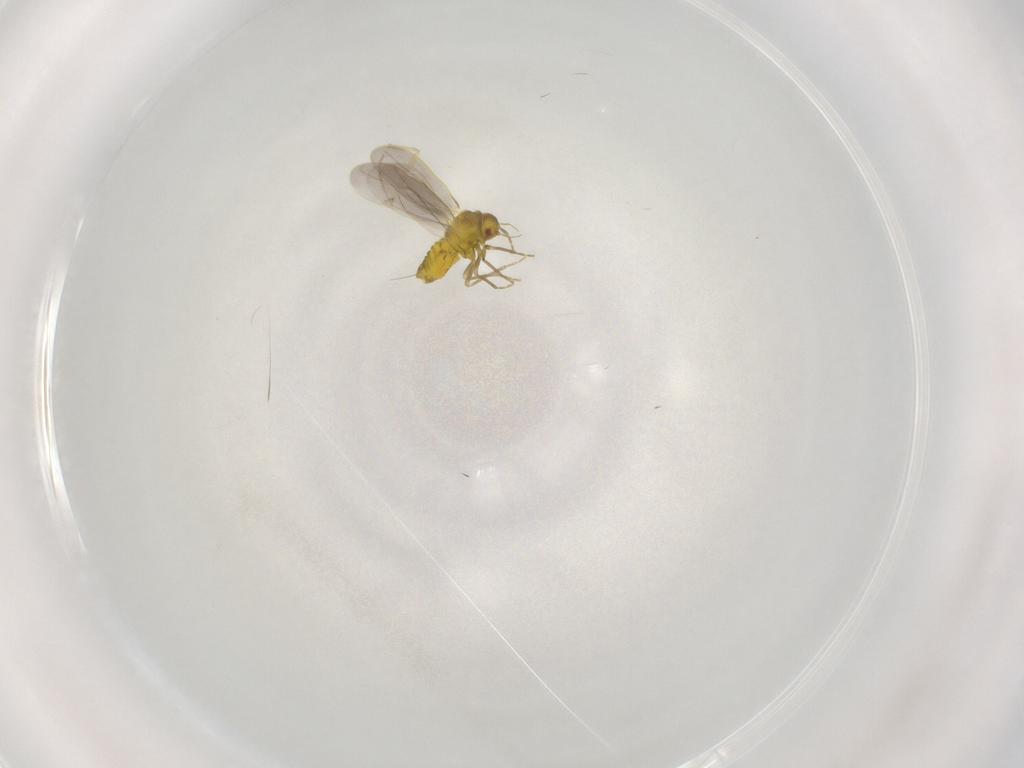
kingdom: Animalia
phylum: Arthropoda
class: Insecta
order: Hemiptera
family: Aleyrodidae
